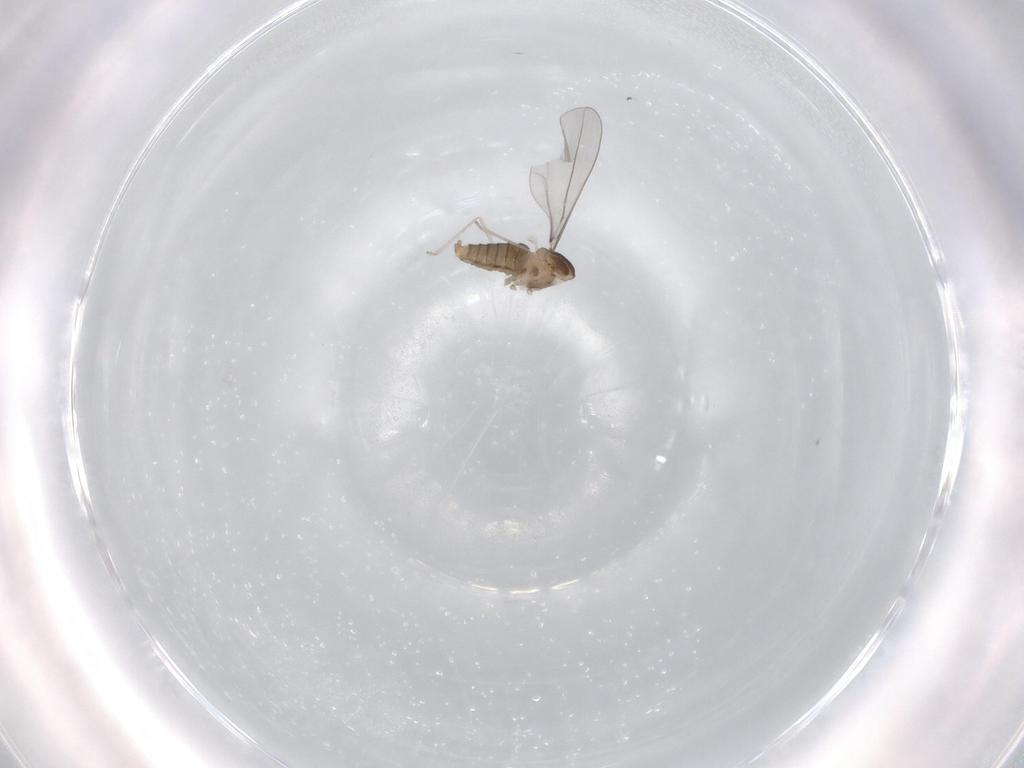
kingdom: Animalia
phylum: Arthropoda
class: Insecta
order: Diptera
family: Cecidomyiidae
